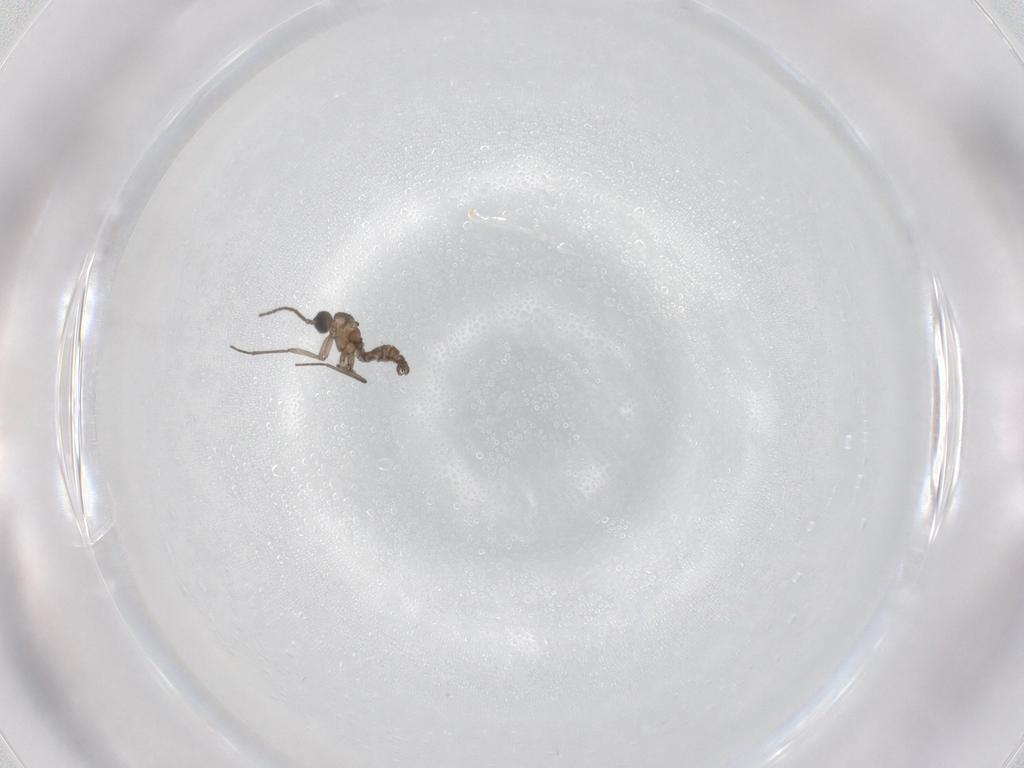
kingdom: Animalia
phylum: Arthropoda
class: Insecta
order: Diptera
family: Sciaridae
